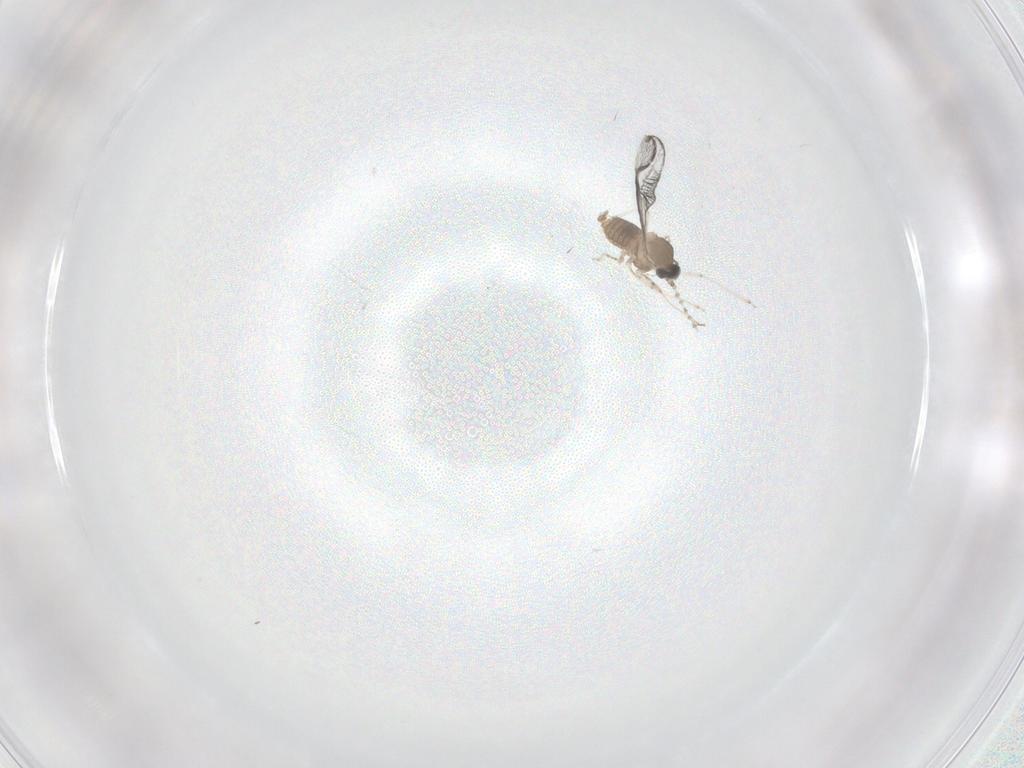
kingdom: Animalia
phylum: Arthropoda
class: Insecta
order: Diptera
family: Cecidomyiidae
